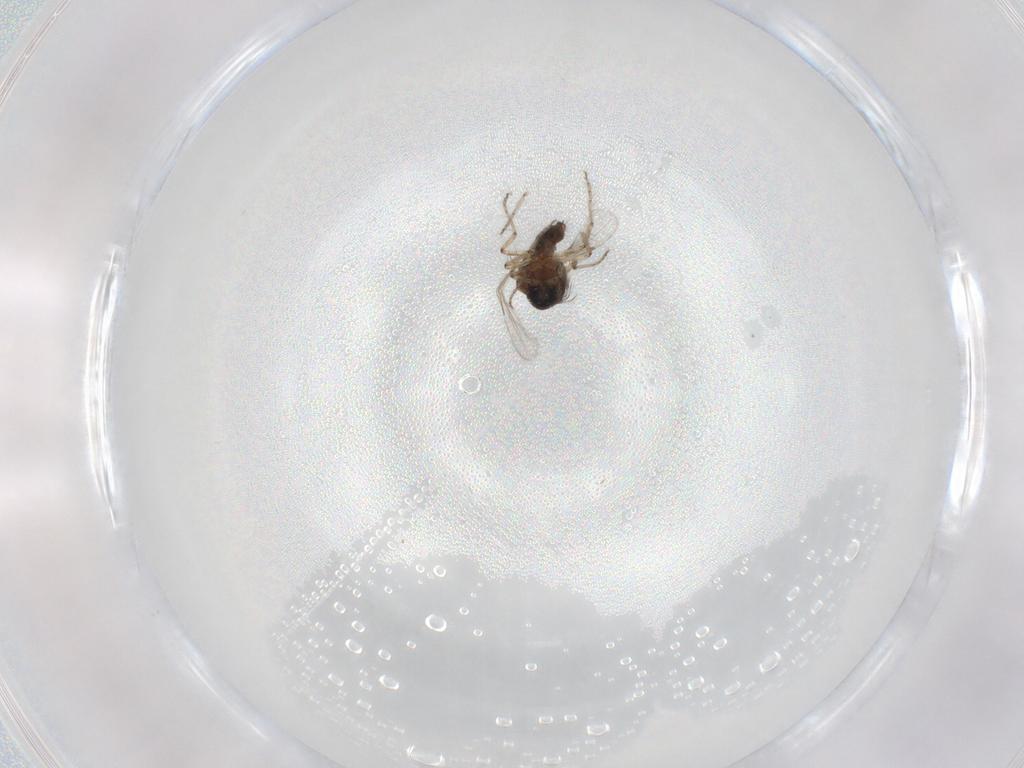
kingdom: Animalia
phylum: Arthropoda
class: Insecta
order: Diptera
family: Ceratopogonidae
